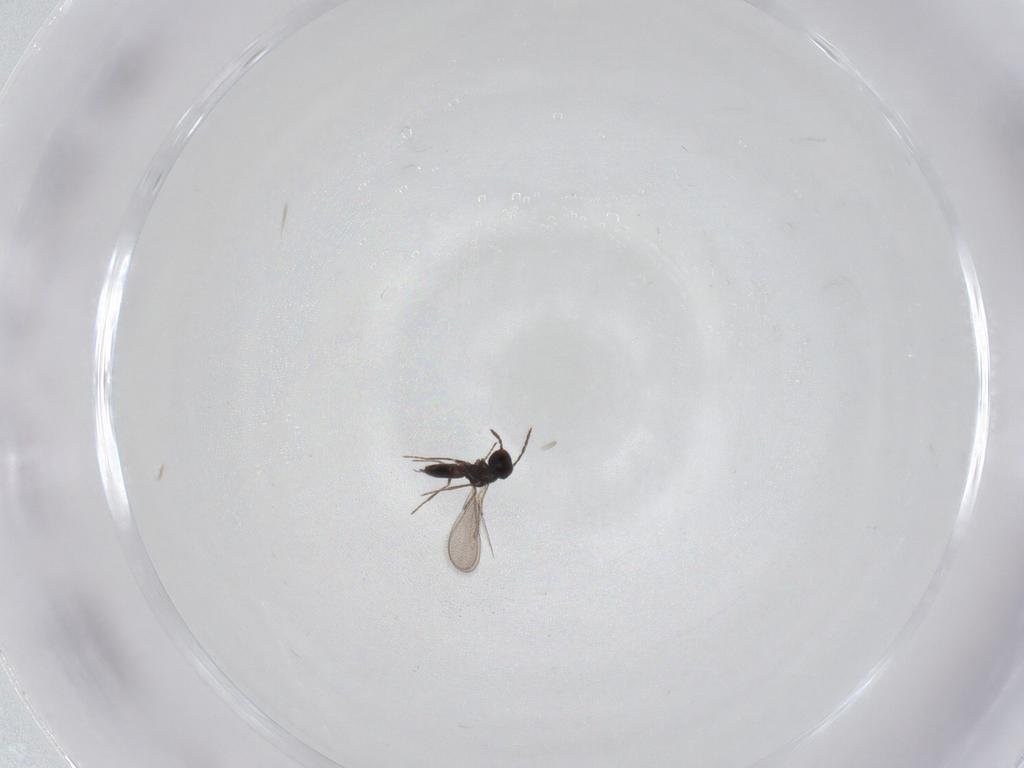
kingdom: Animalia
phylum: Arthropoda
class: Insecta
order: Hymenoptera
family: Eulophidae
